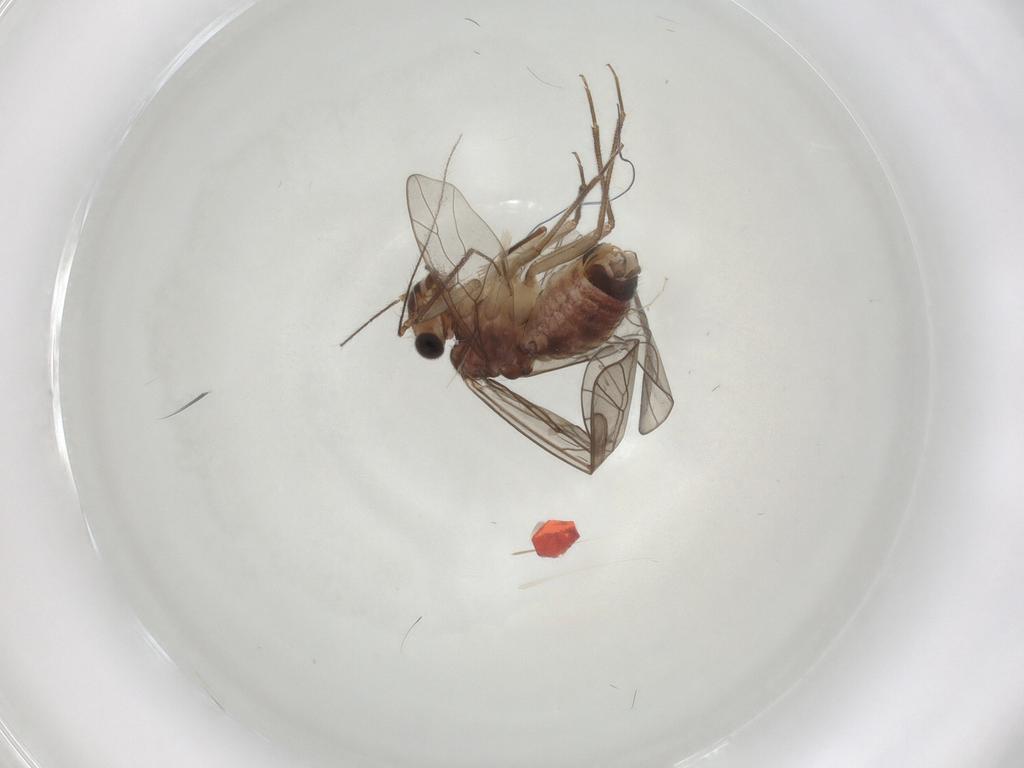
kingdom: Animalia
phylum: Arthropoda
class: Insecta
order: Psocodea
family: Lachesillidae
